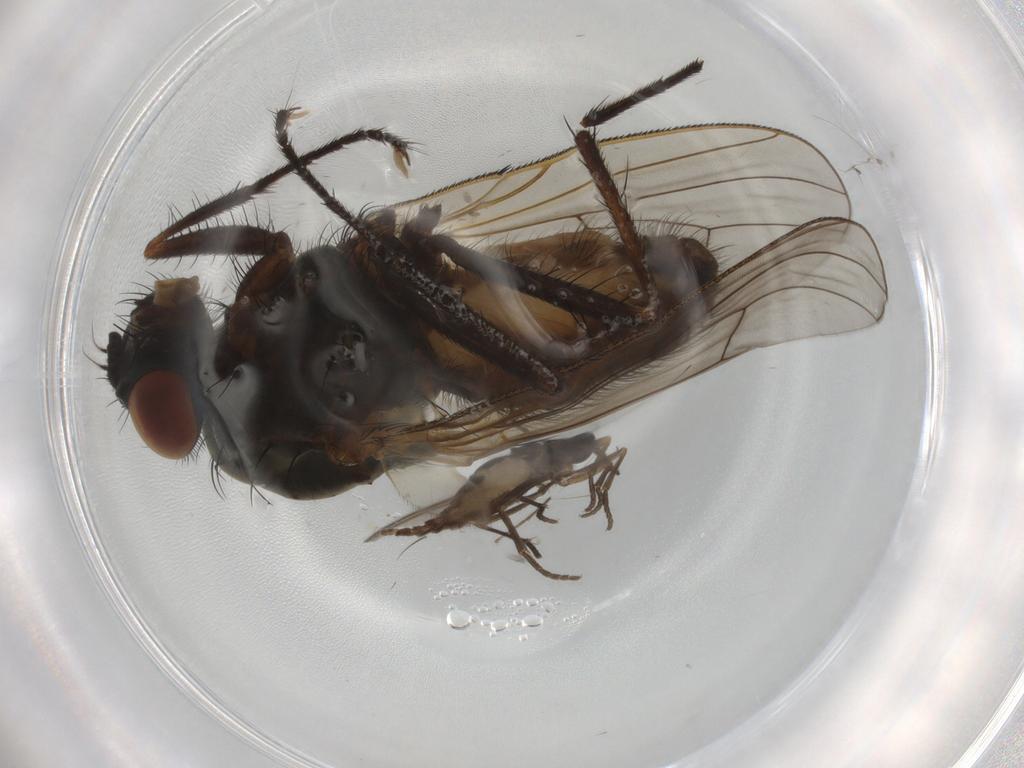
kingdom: Animalia
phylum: Arthropoda
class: Insecta
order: Diptera
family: Anthomyiidae
